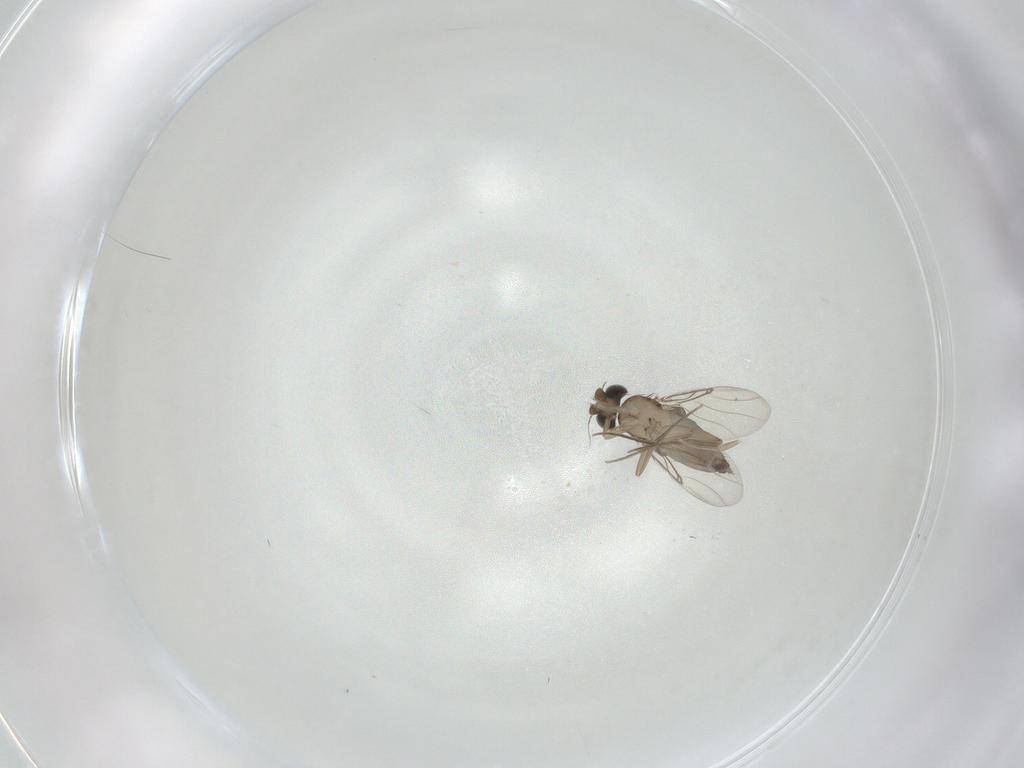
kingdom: Animalia
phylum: Arthropoda
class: Insecta
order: Diptera
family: Phoridae
